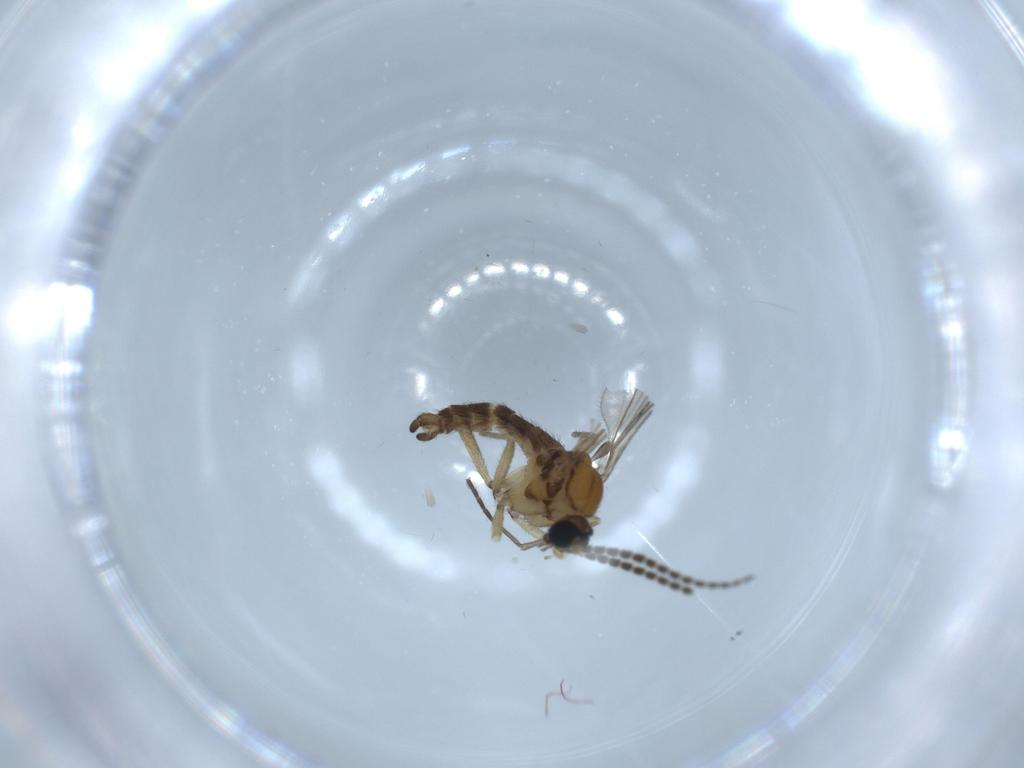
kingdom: Animalia
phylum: Arthropoda
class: Insecta
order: Diptera
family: Sciaridae
